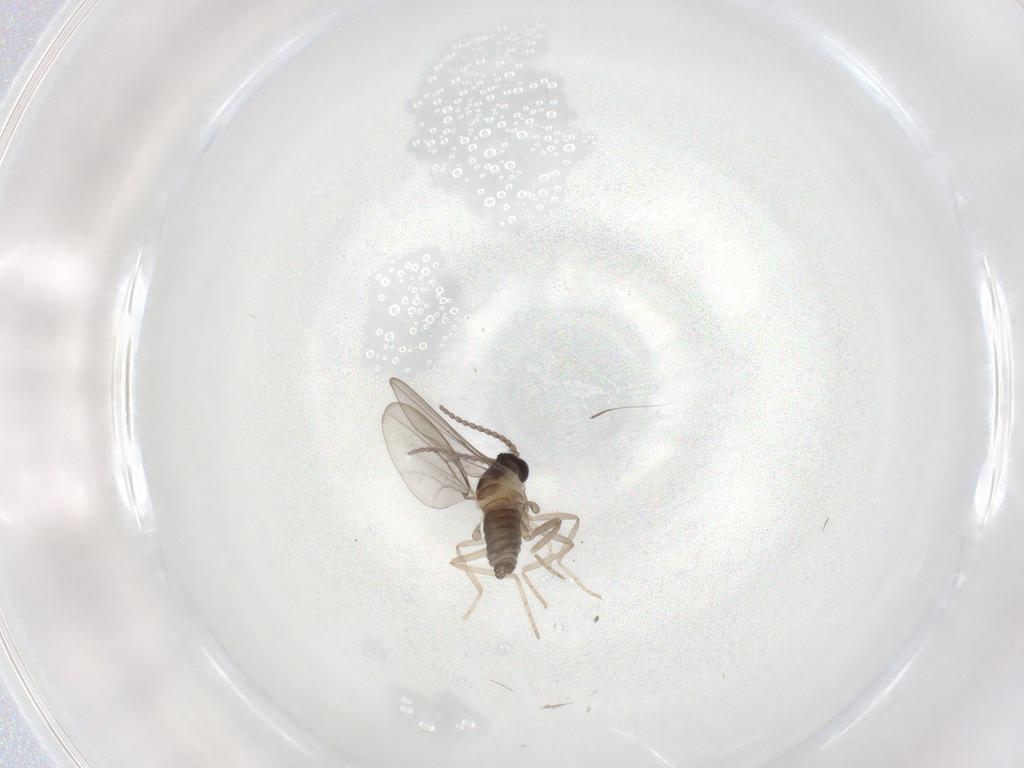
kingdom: Animalia
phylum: Arthropoda
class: Insecta
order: Diptera
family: Cecidomyiidae
